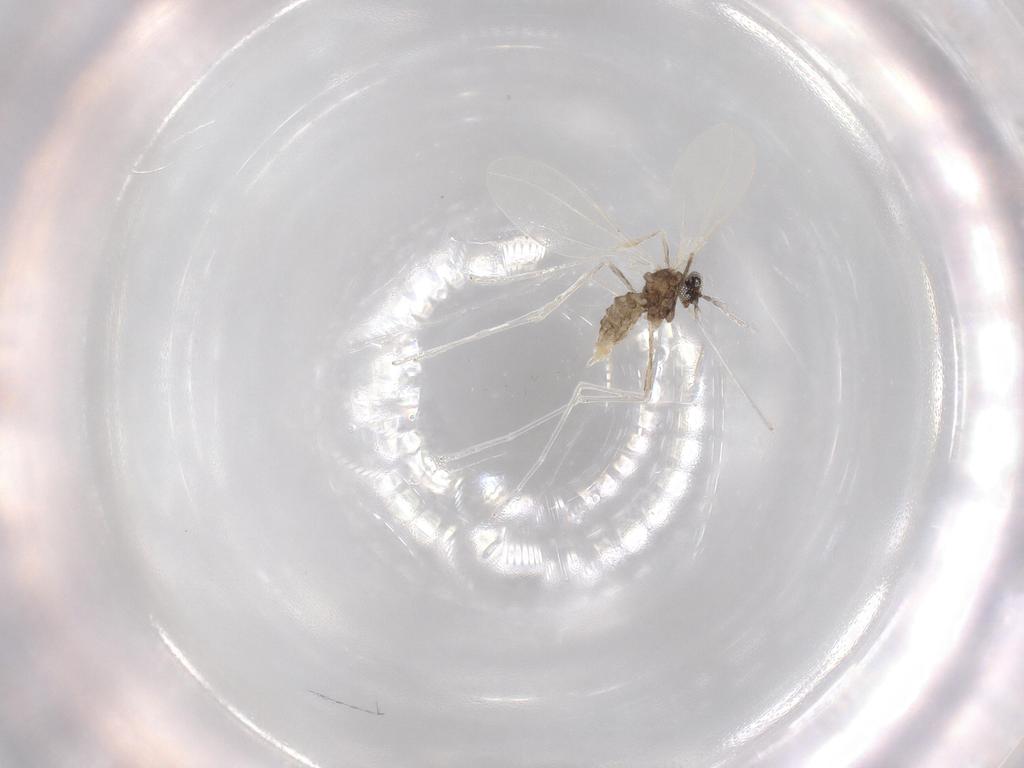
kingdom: Animalia
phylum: Arthropoda
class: Insecta
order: Diptera
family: Cecidomyiidae
